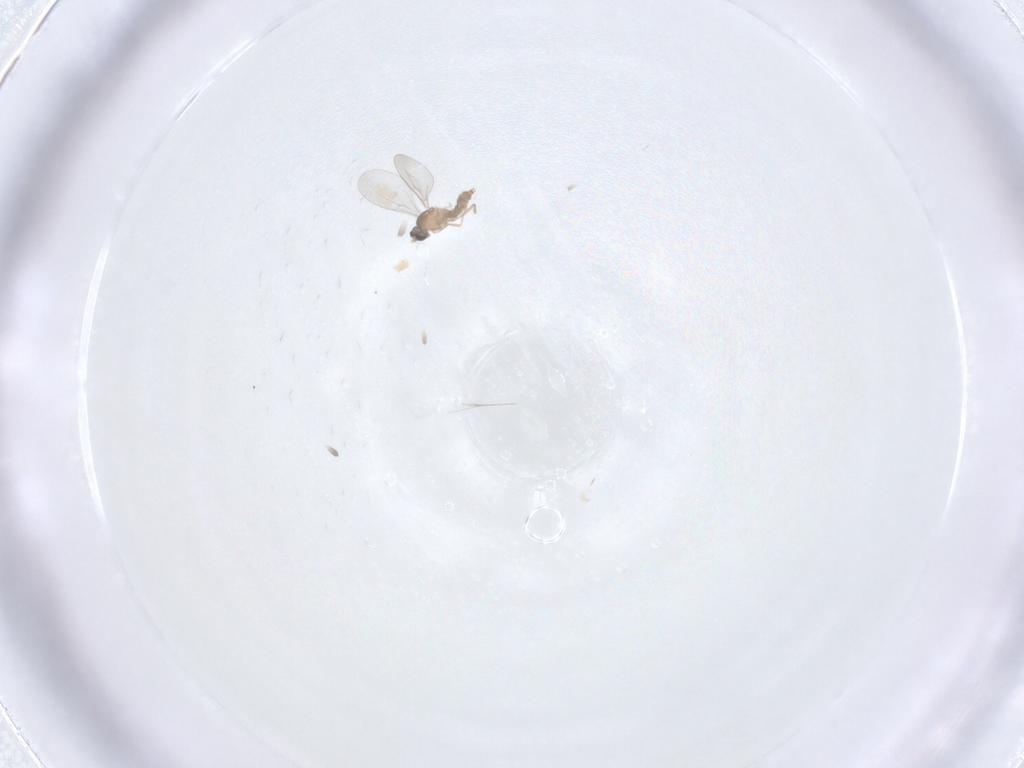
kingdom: Animalia
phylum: Arthropoda
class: Insecta
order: Diptera
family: Cecidomyiidae
